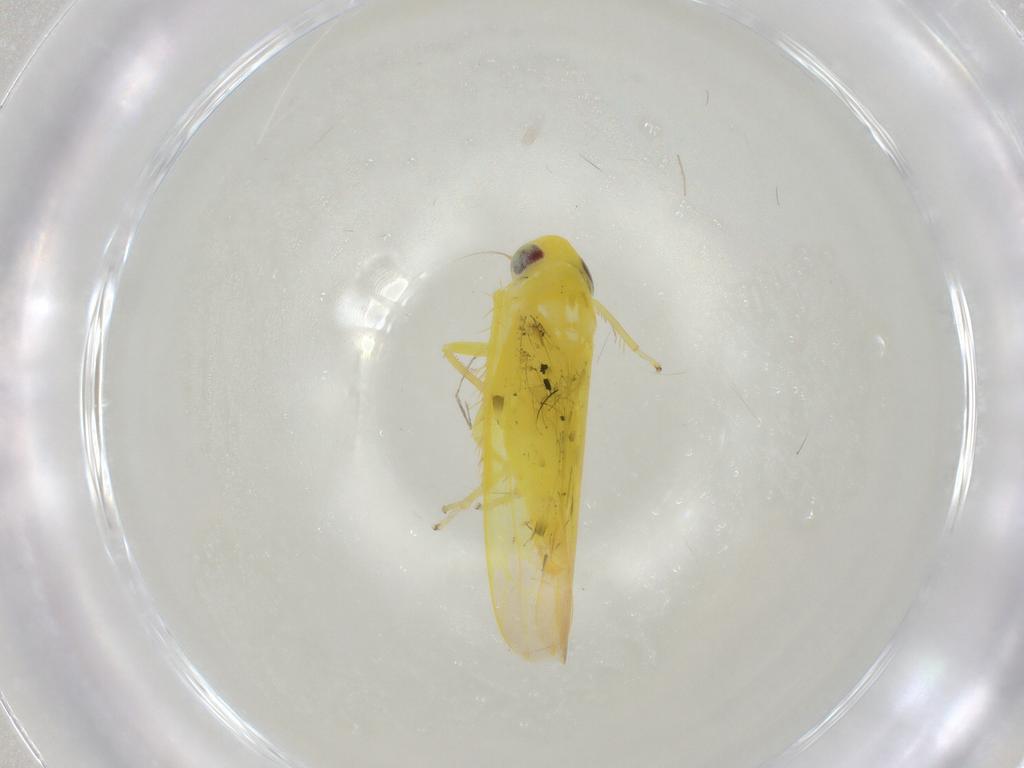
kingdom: Animalia
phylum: Arthropoda
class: Insecta
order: Hemiptera
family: Cicadellidae
